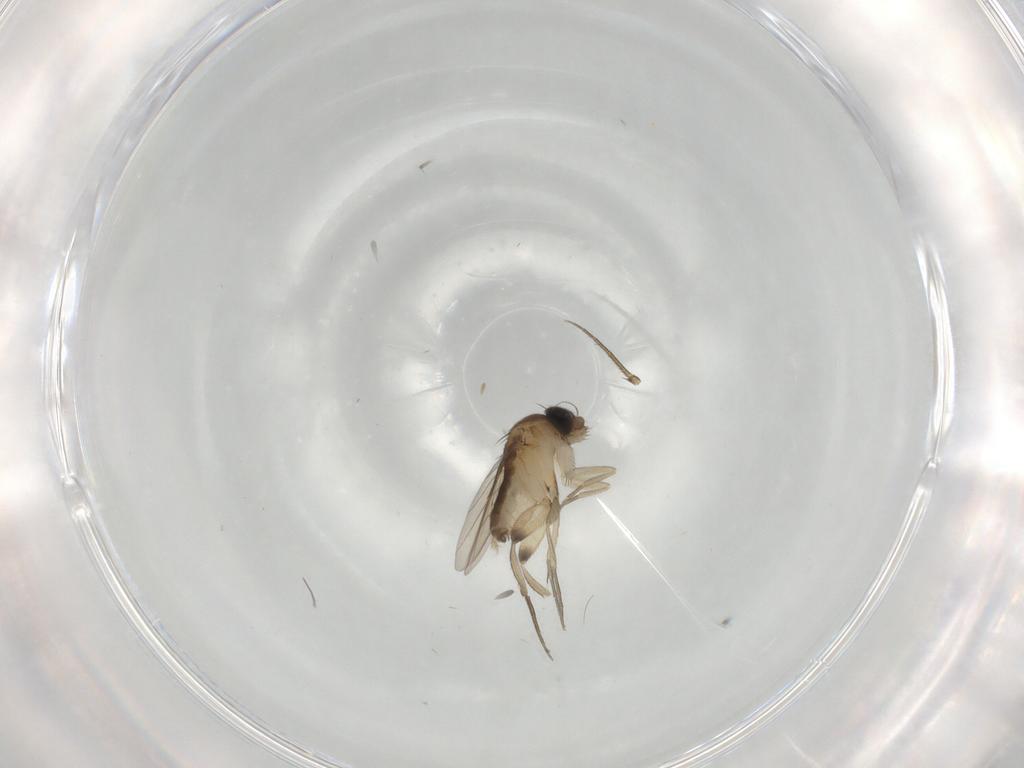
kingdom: Animalia
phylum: Arthropoda
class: Insecta
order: Diptera
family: Phoridae
